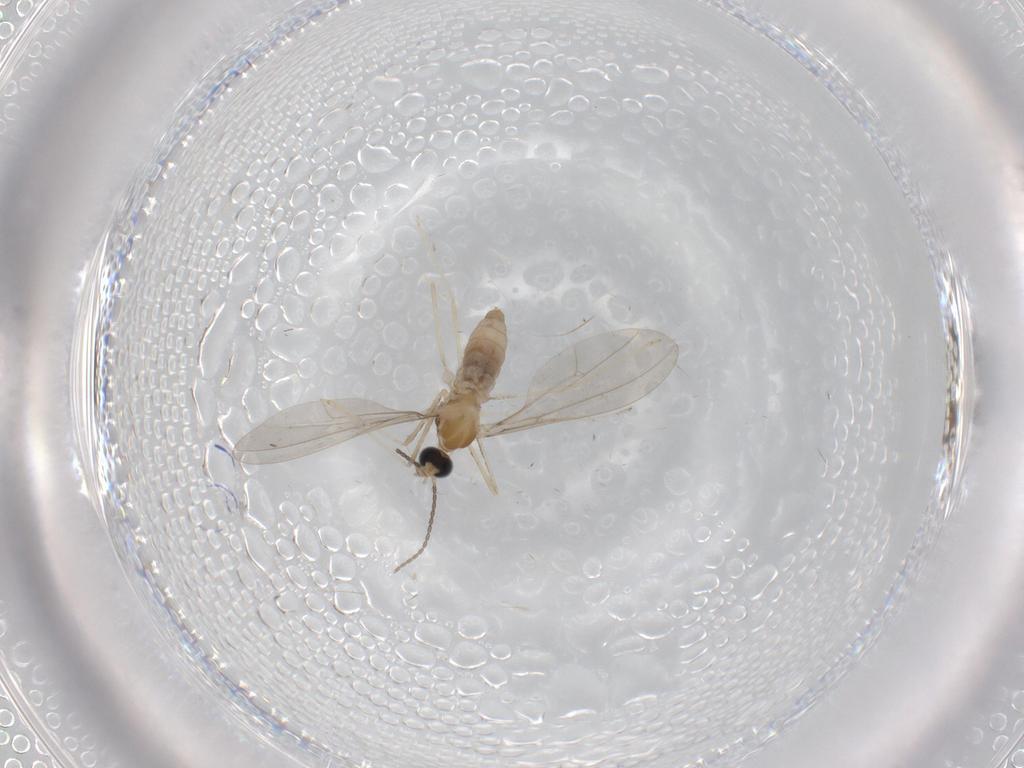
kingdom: Animalia
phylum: Arthropoda
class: Insecta
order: Diptera
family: Cecidomyiidae
